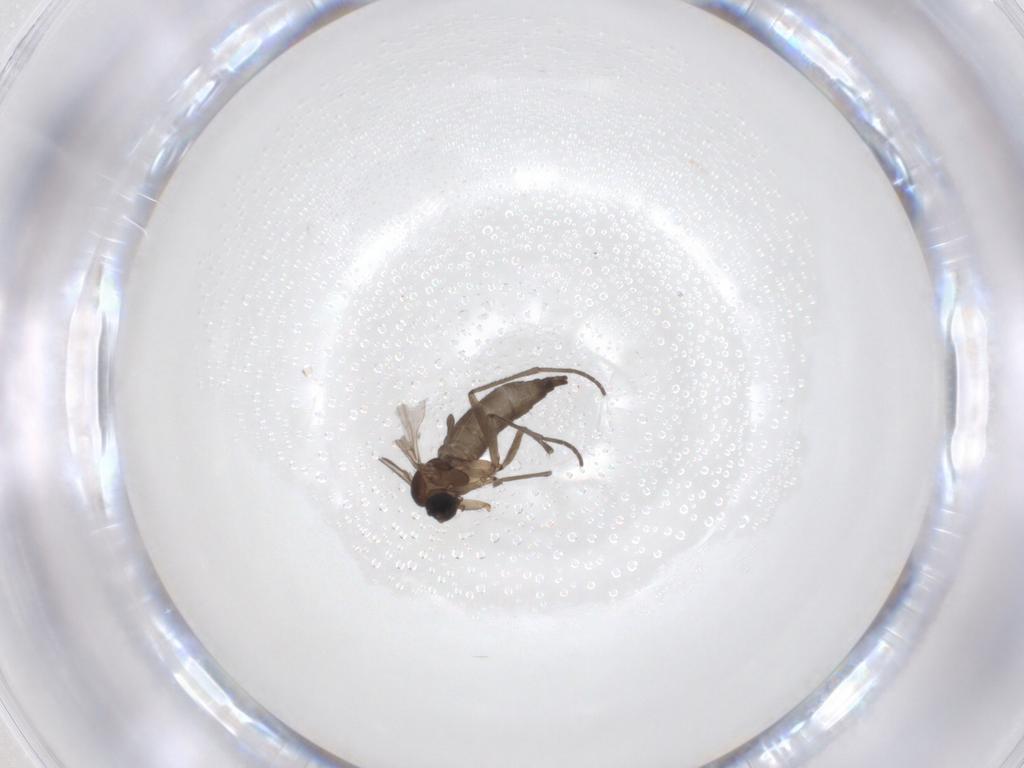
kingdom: Animalia
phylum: Arthropoda
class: Insecta
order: Diptera
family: Sciaridae
